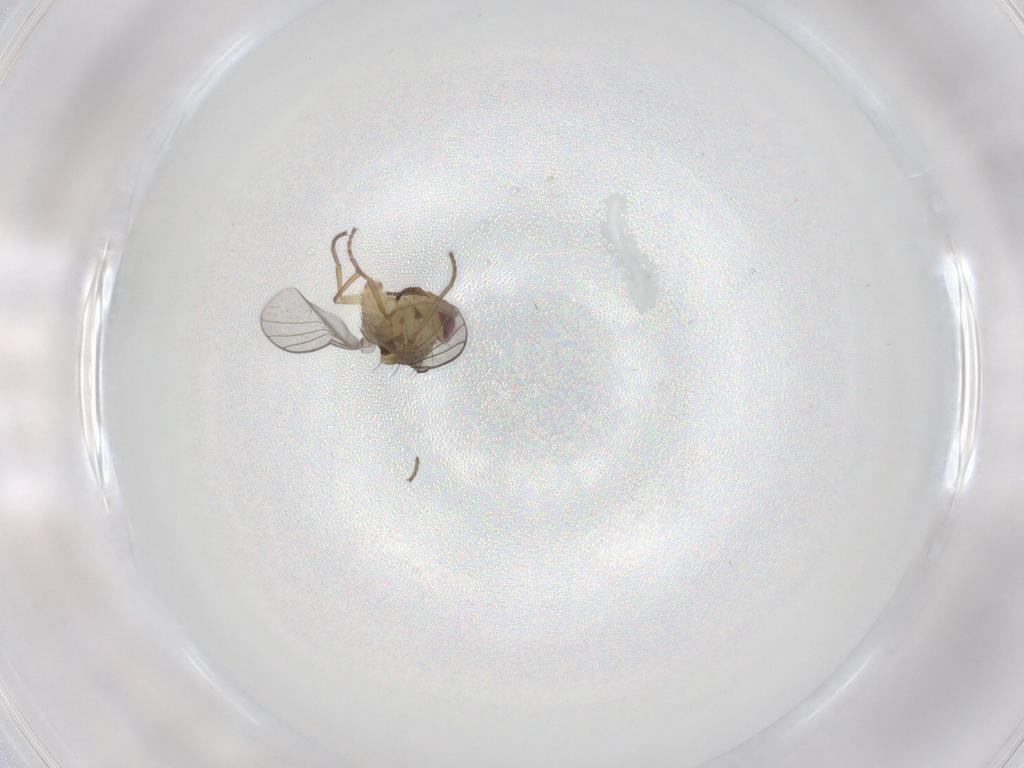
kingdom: Animalia
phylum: Arthropoda
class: Insecta
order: Diptera
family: Agromyzidae
